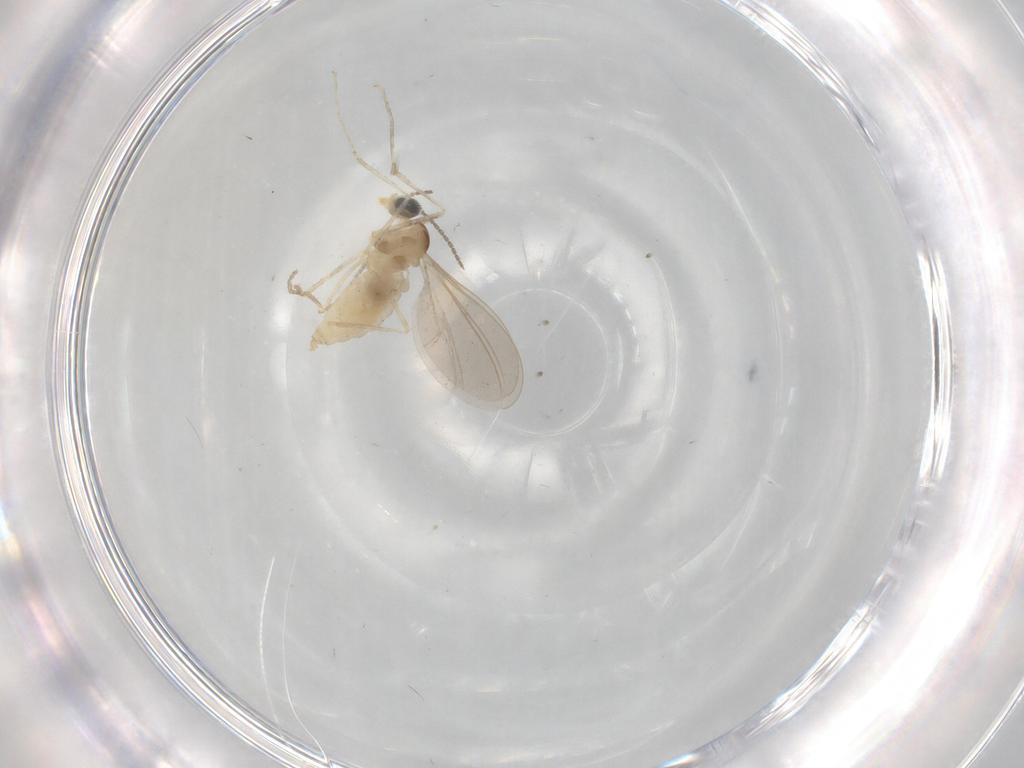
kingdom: Animalia
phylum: Arthropoda
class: Insecta
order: Diptera
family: Cecidomyiidae
